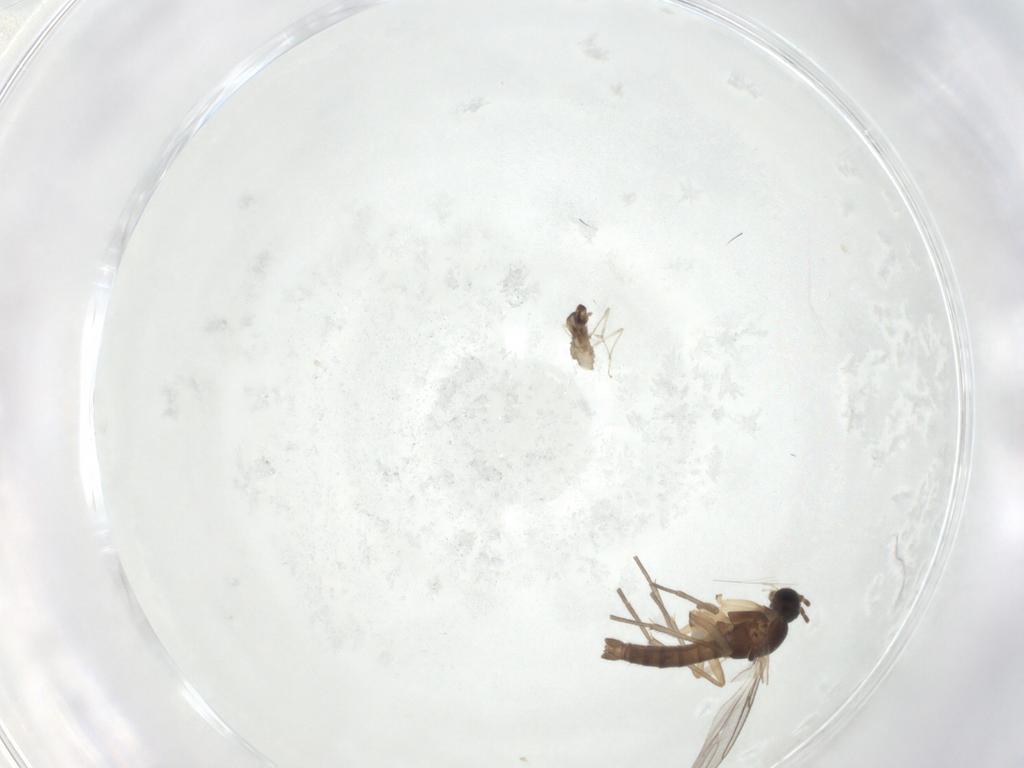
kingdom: Animalia
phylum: Arthropoda
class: Insecta
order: Diptera
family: Cecidomyiidae
